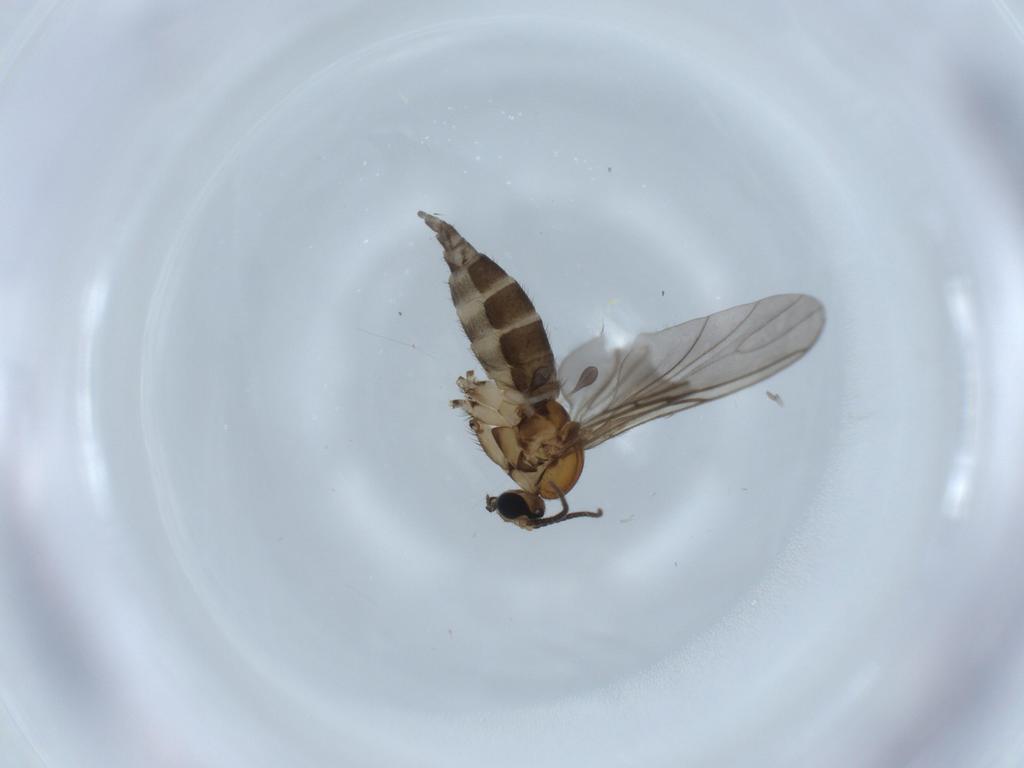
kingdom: Animalia
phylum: Arthropoda
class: Insecta
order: Diptera
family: Sciaridae
